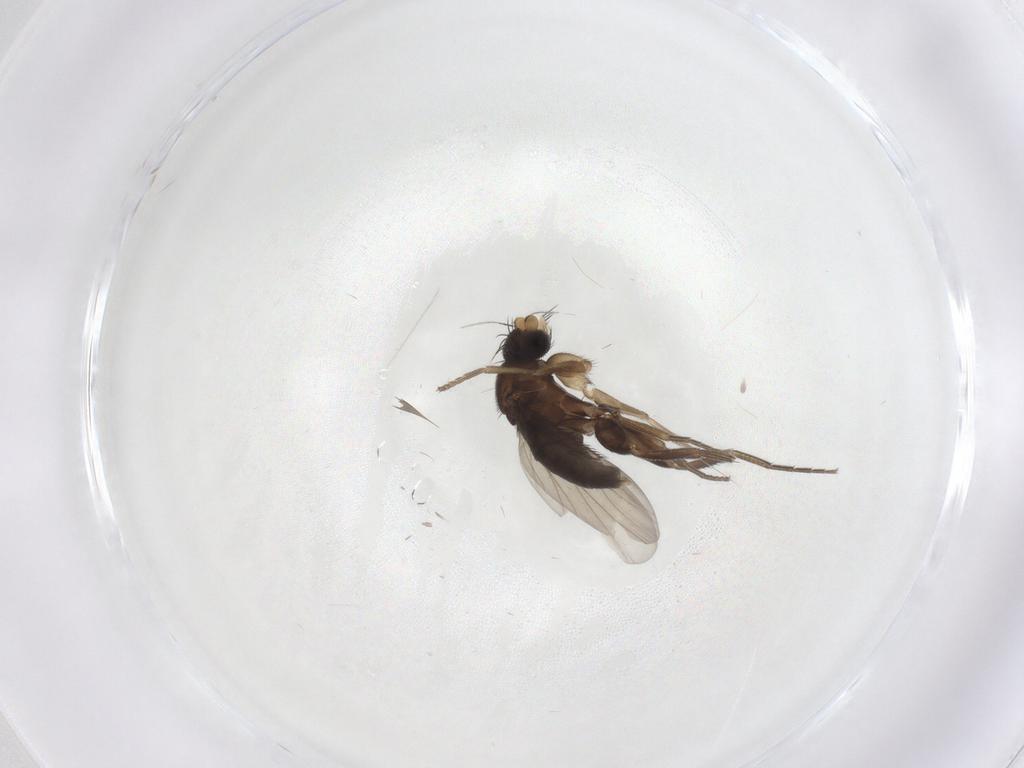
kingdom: Animalia
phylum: Arthropoda
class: Insecta
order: Diptera
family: Phoridae
